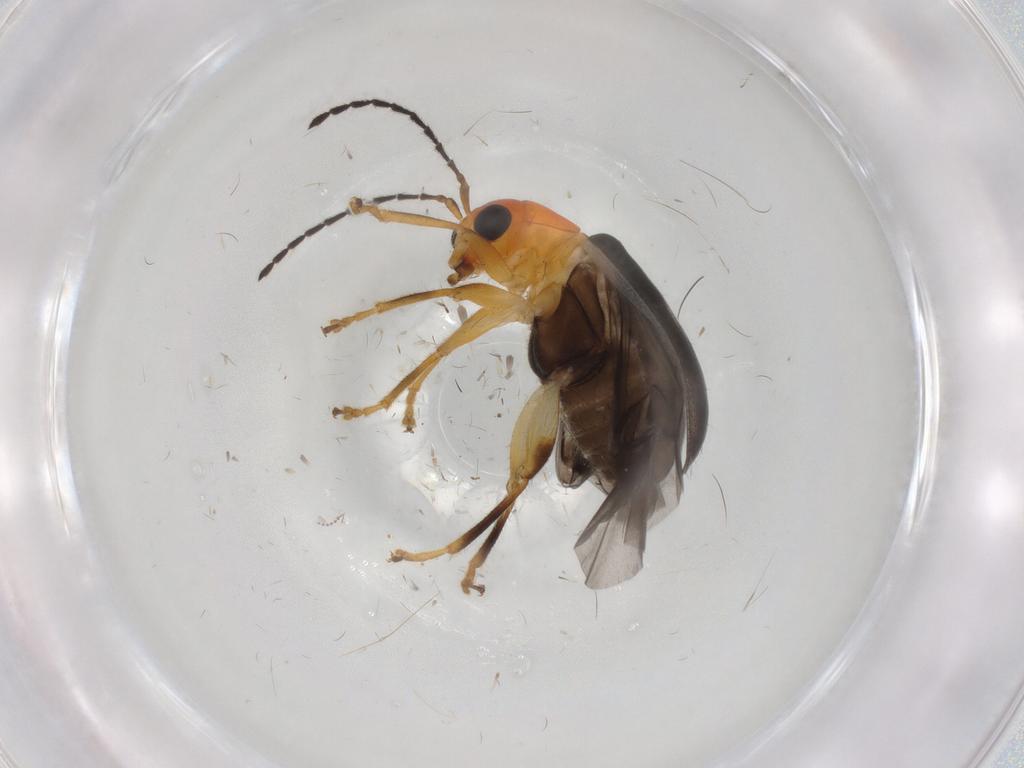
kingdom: Animalia
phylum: Arthropoda
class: Insecta
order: Coleoptera
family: Chrysomelidae
